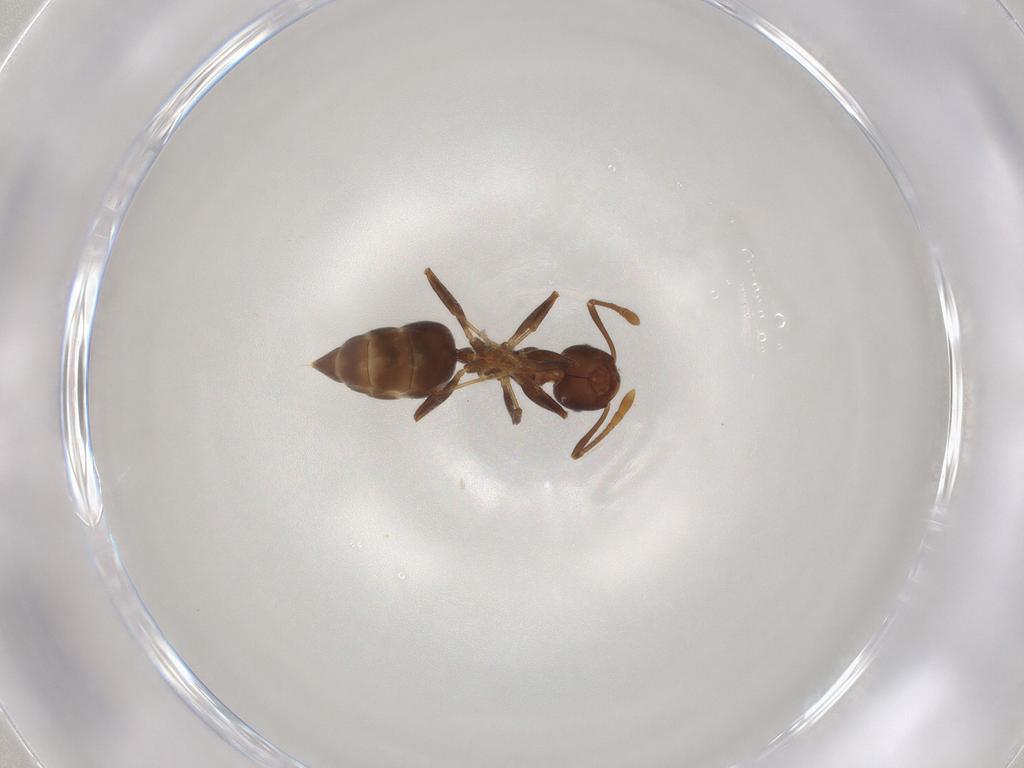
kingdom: Animalia
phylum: Arthropoda
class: Insecta
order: Hymenoptera
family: Formicidae
